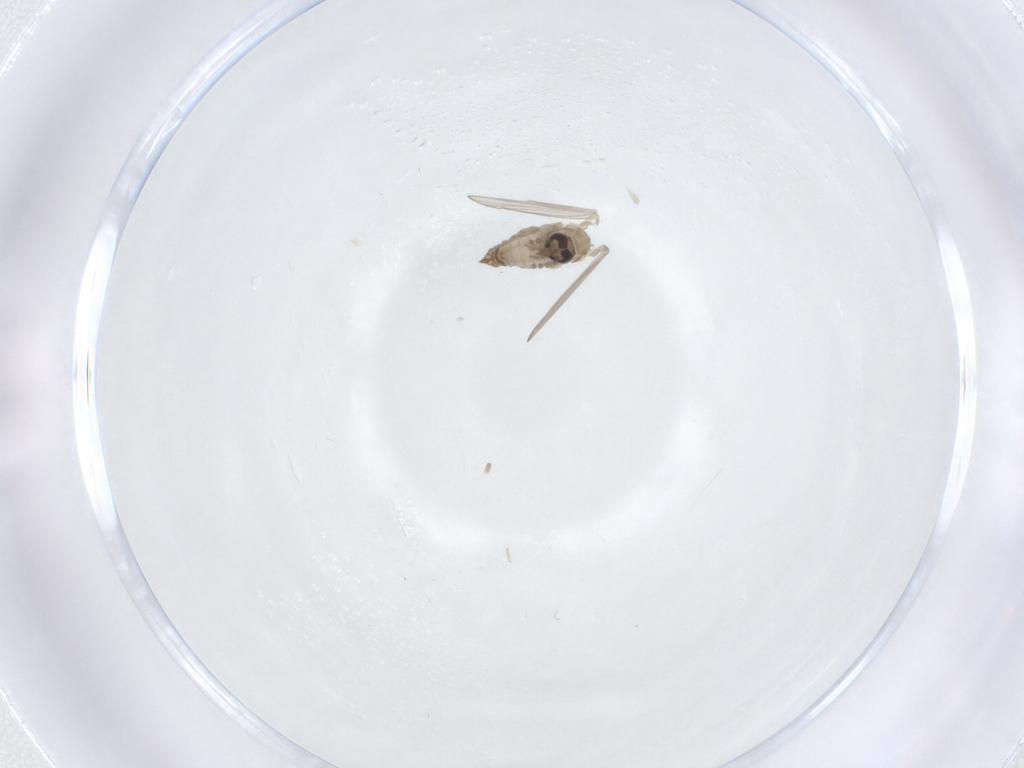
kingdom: Animalia
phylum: Arthropoda
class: Insecta
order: Diptera
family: Psychodidae
